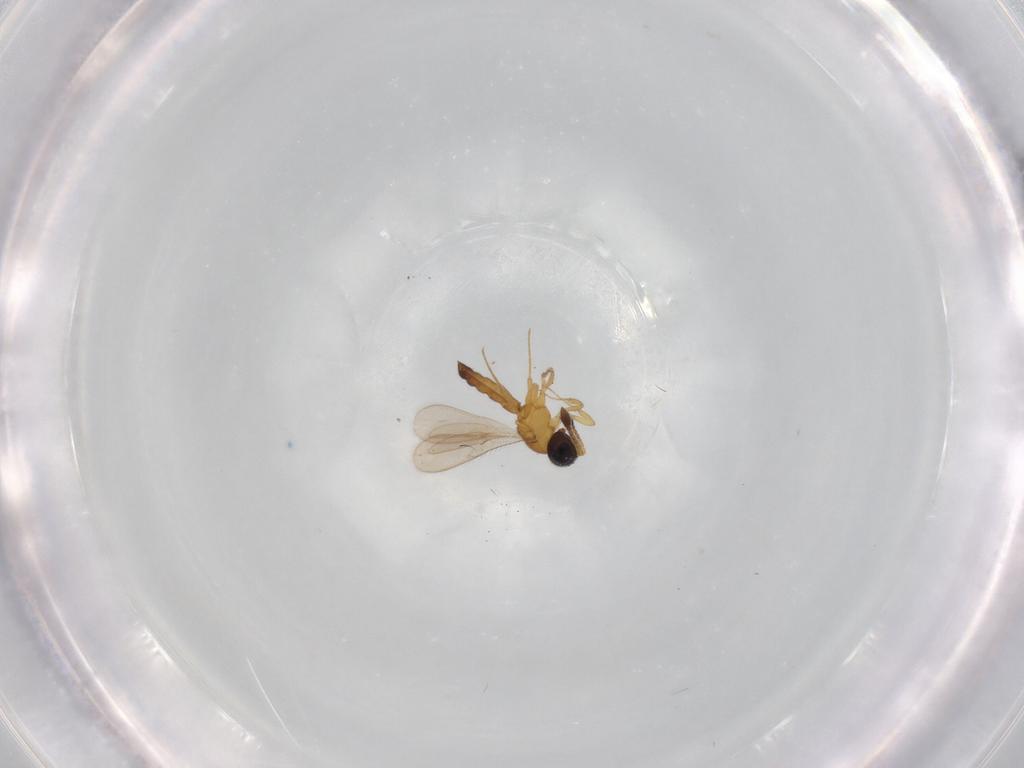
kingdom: Animalia
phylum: Arthropoda
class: Insecta
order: Hymenoptera
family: Scelionidae
